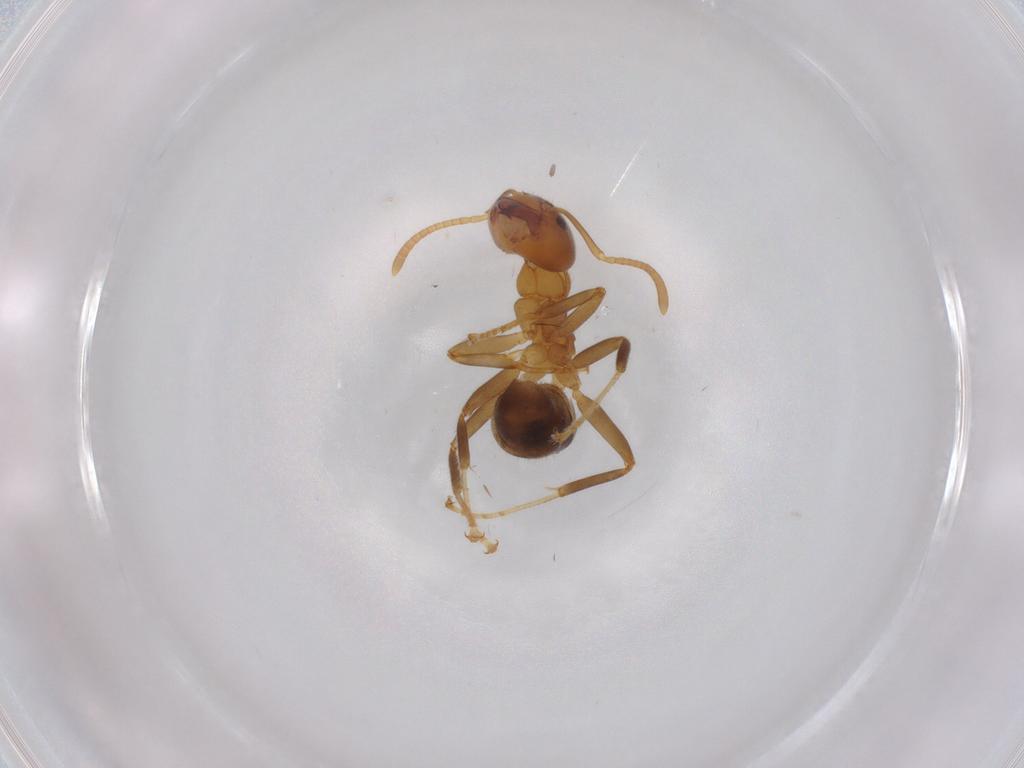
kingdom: Animalia
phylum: Arthropoda
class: Insecta
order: Hymenoptera
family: Formicidae
